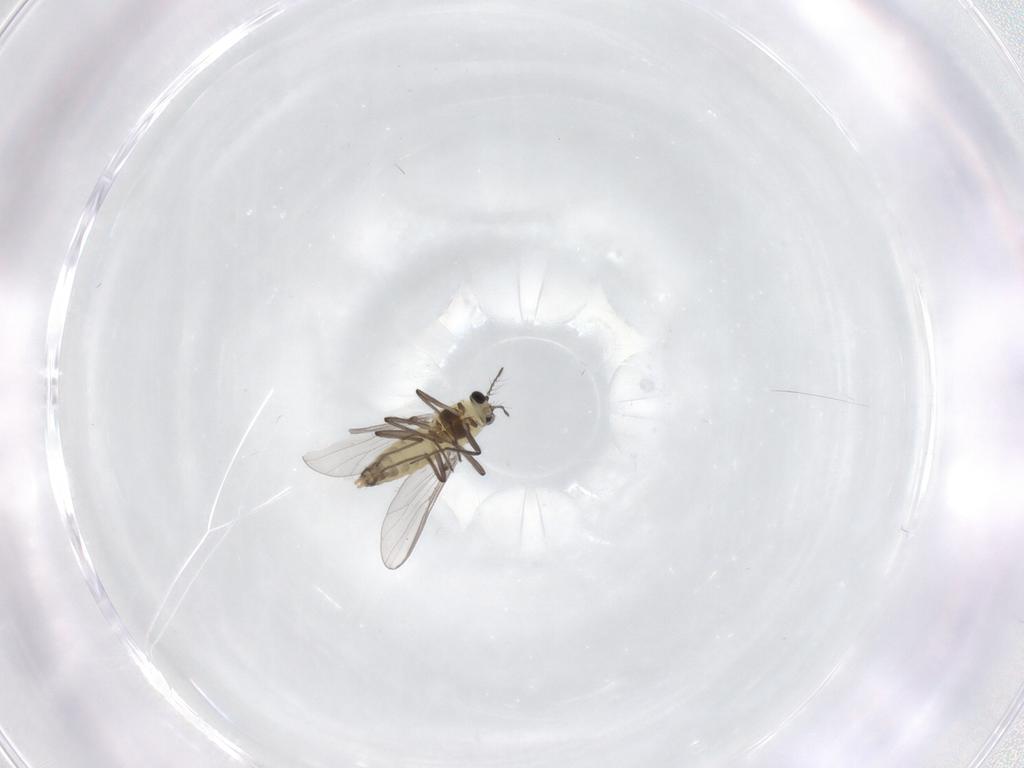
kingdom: Animalia
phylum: Arthropoda
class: Insecta
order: Diptera
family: Chironomidae
